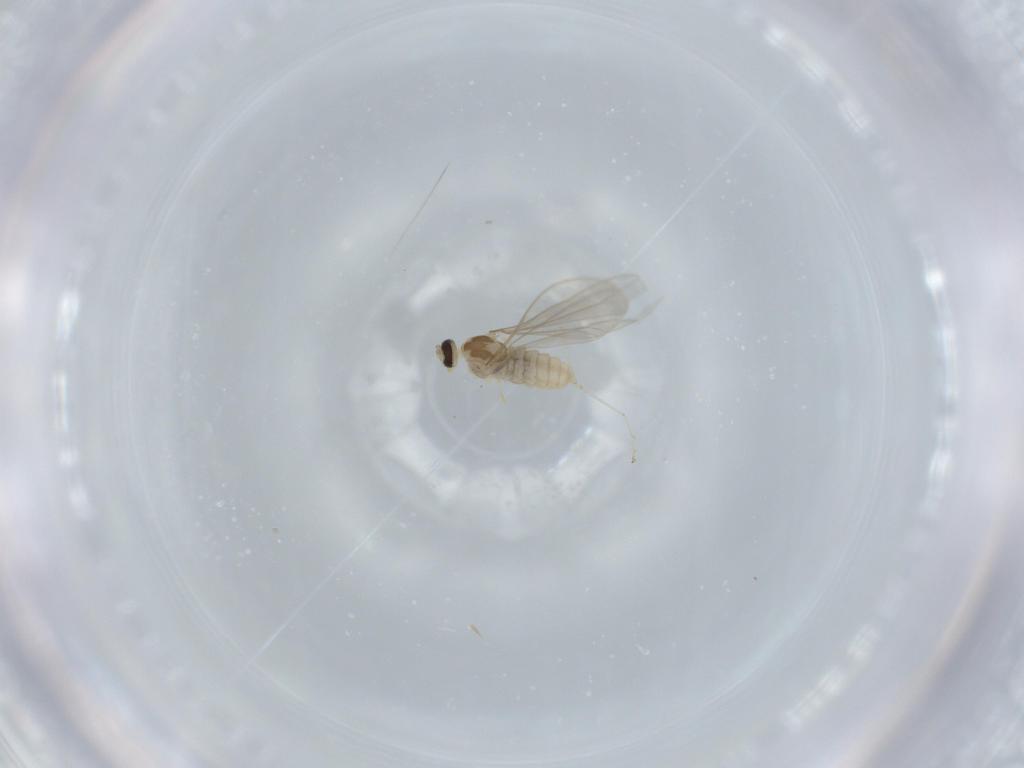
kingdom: Animalia
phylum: Arthropoda
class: Insecta
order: Diptera
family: Cecidomyiidae
